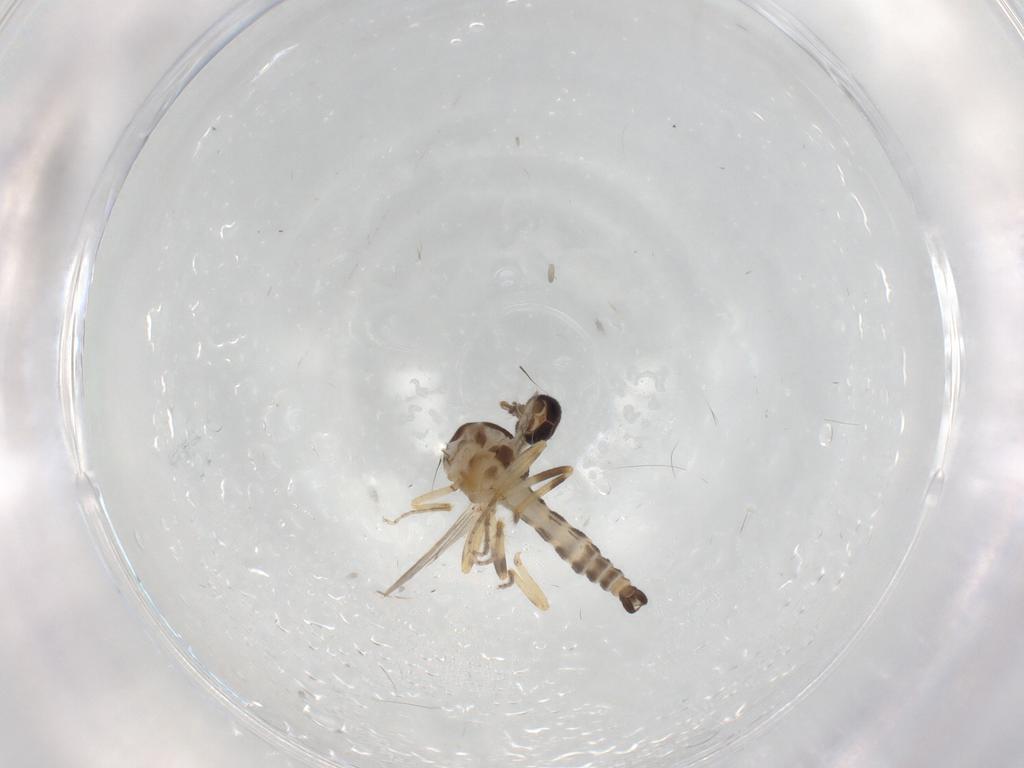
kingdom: Animalia
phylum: Arthropoda
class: Insecta
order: Diptera
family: Ceratopogonidae
